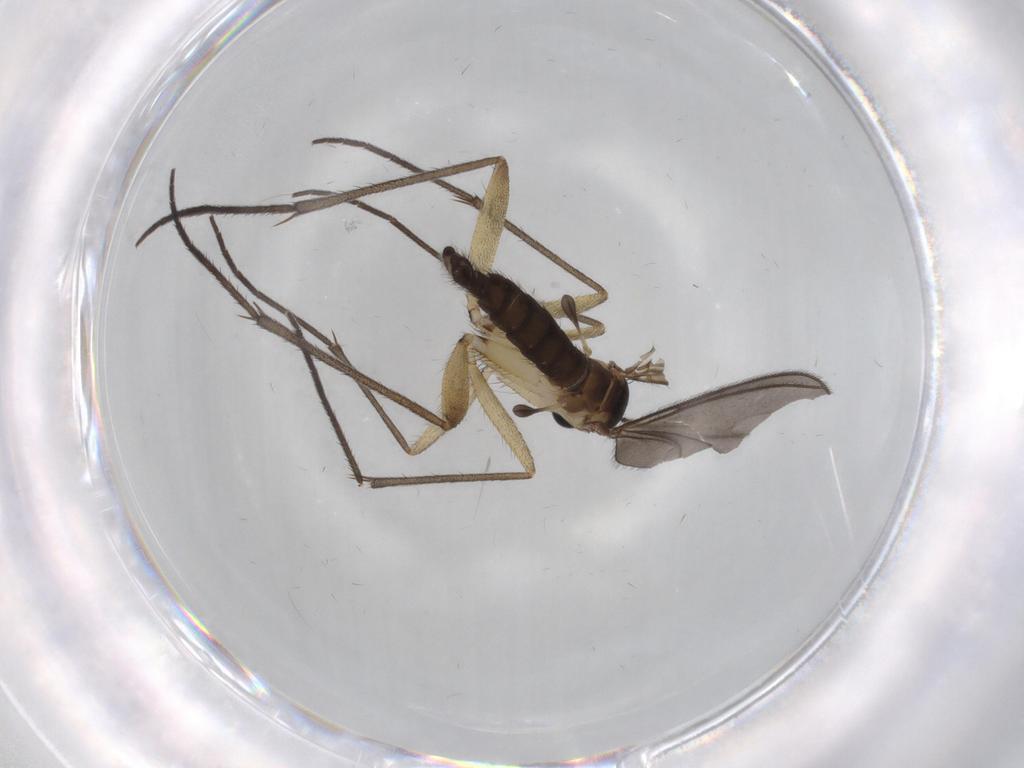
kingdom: Animalia
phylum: Arthropoda
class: Insecta
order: Diptera
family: Sciaridae
